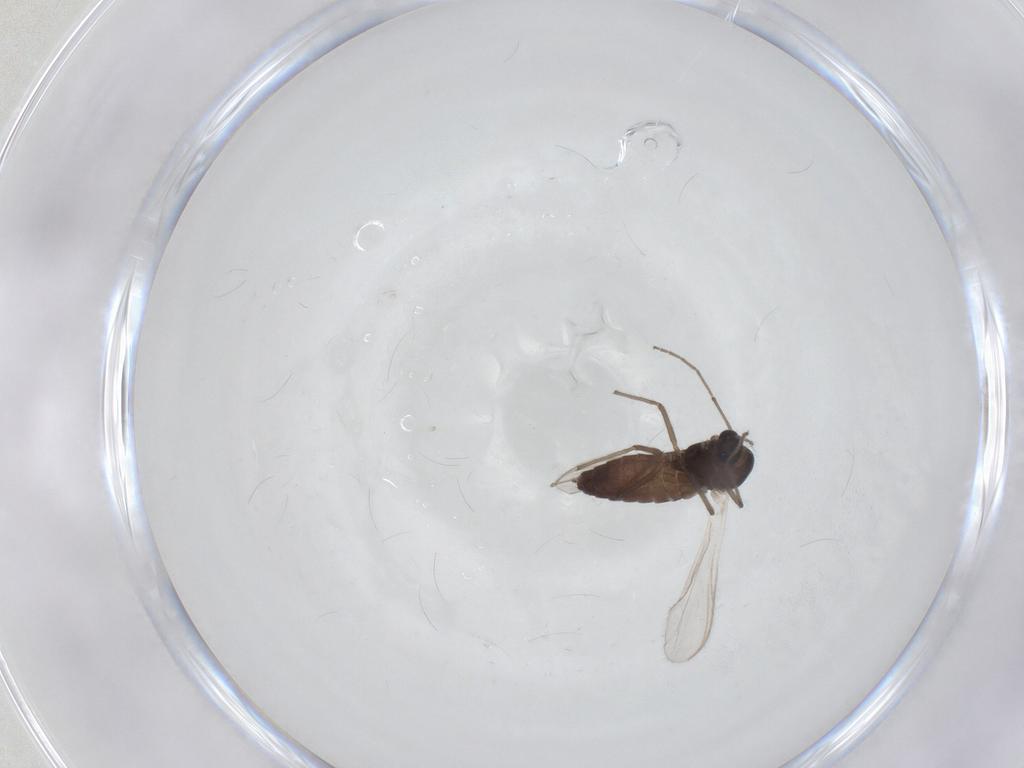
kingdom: Animalia
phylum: Arthropoda
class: Insecta
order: Diptera
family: Chironomidae
